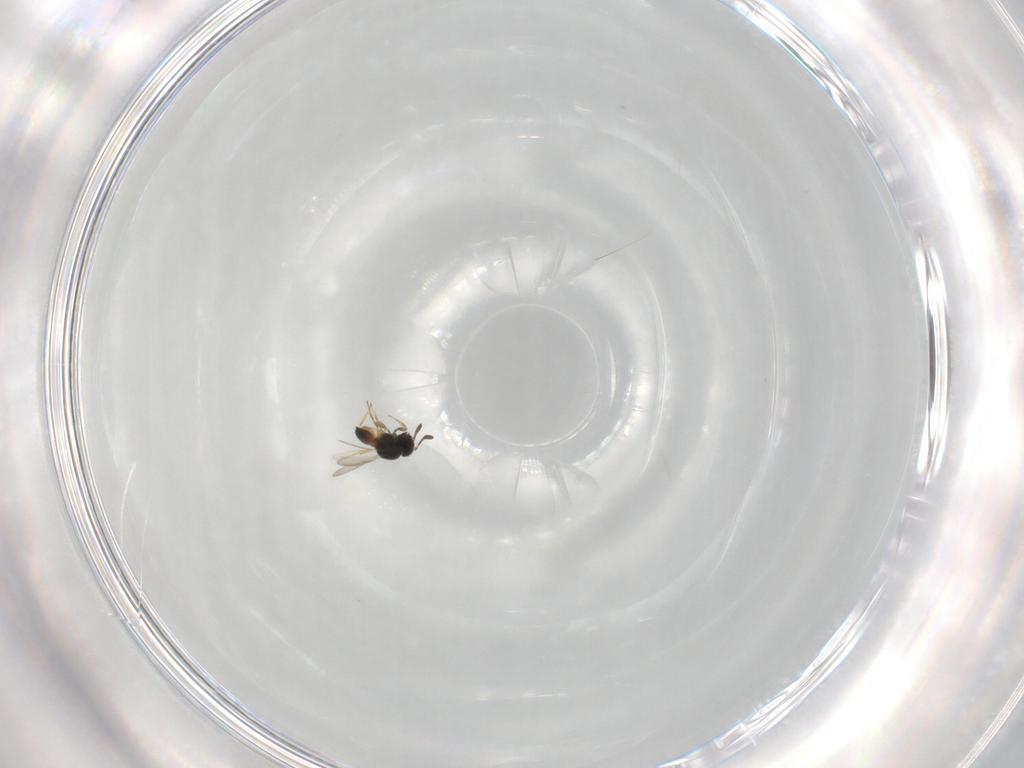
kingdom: Animalia
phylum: Arthropoda
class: Insecta
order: Hymenoptera
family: Scelionidae
